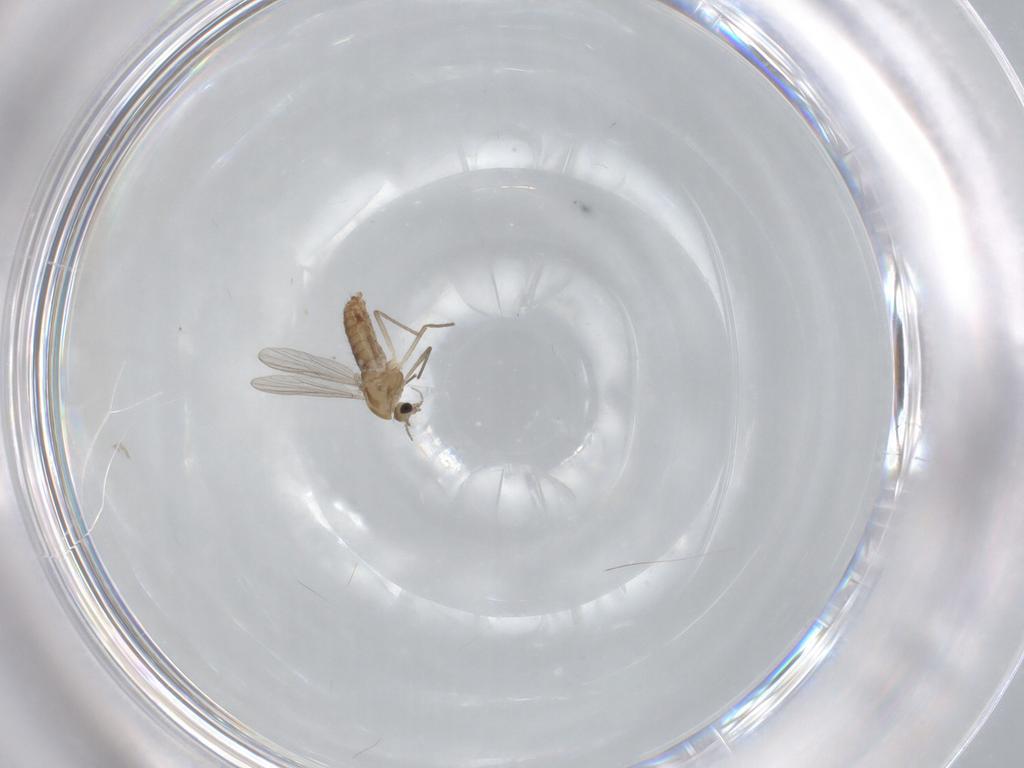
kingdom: Animalia
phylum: Arthropoda
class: Insecta
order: Diptera
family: Chironomidae
